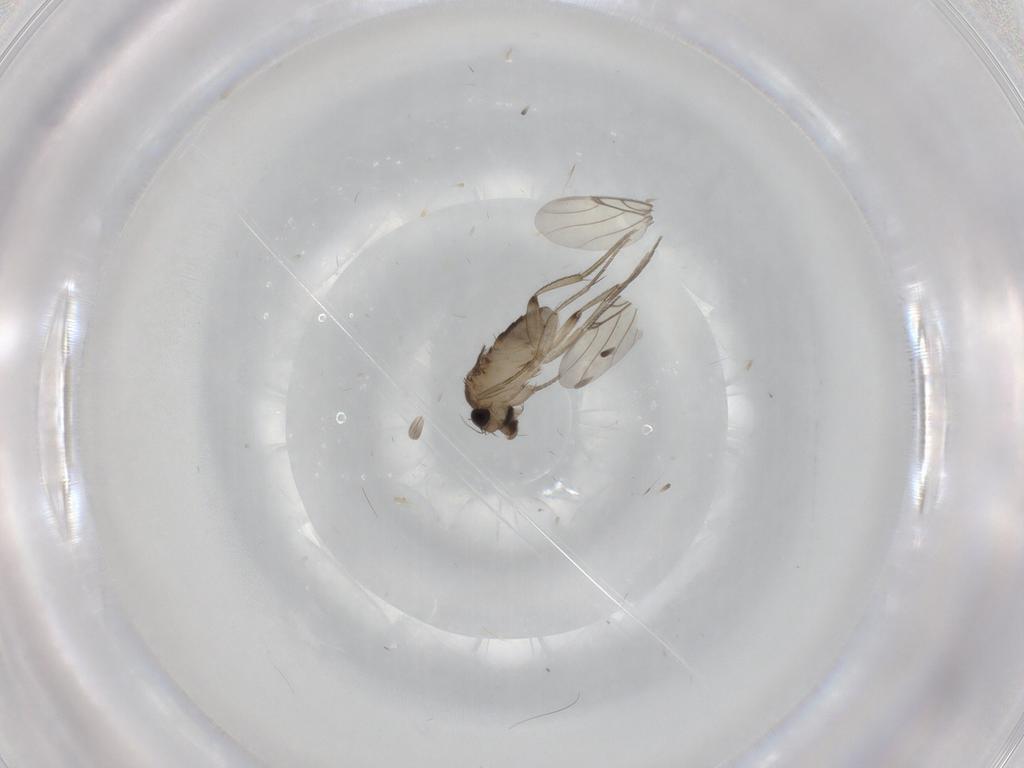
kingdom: Animalia
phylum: Arthropoda
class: Insecta
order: Diptera
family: Phoridae
